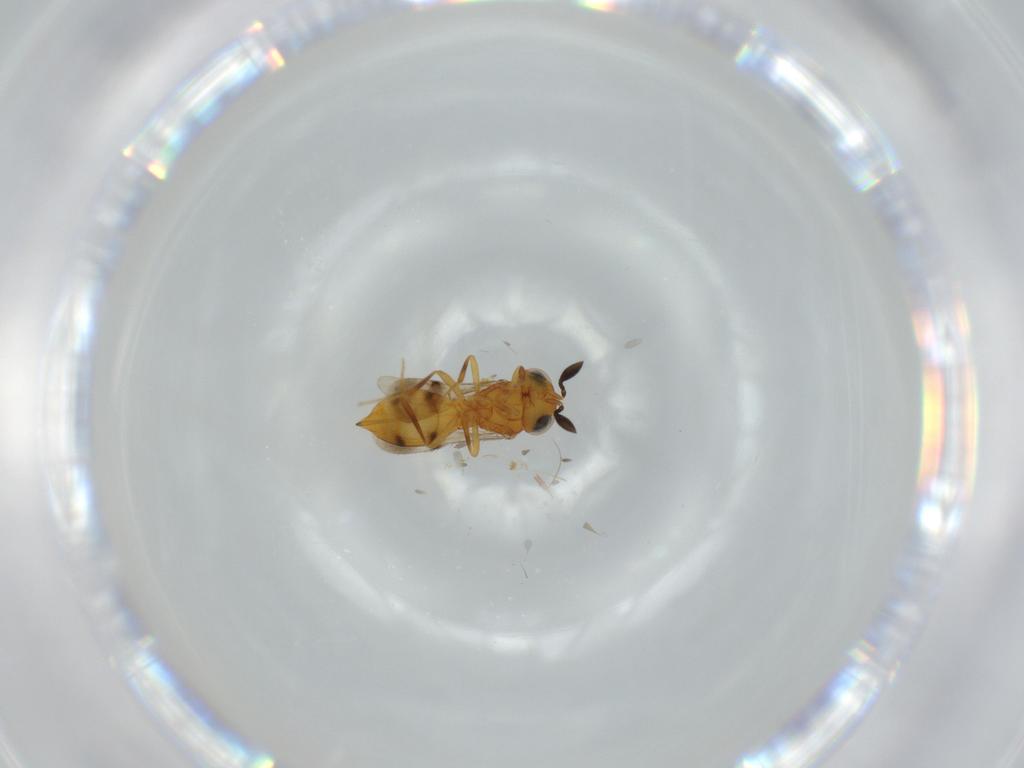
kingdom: Animalia
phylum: Arthropoda
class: Insecta
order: Hymenoptera
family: Scelionidae
